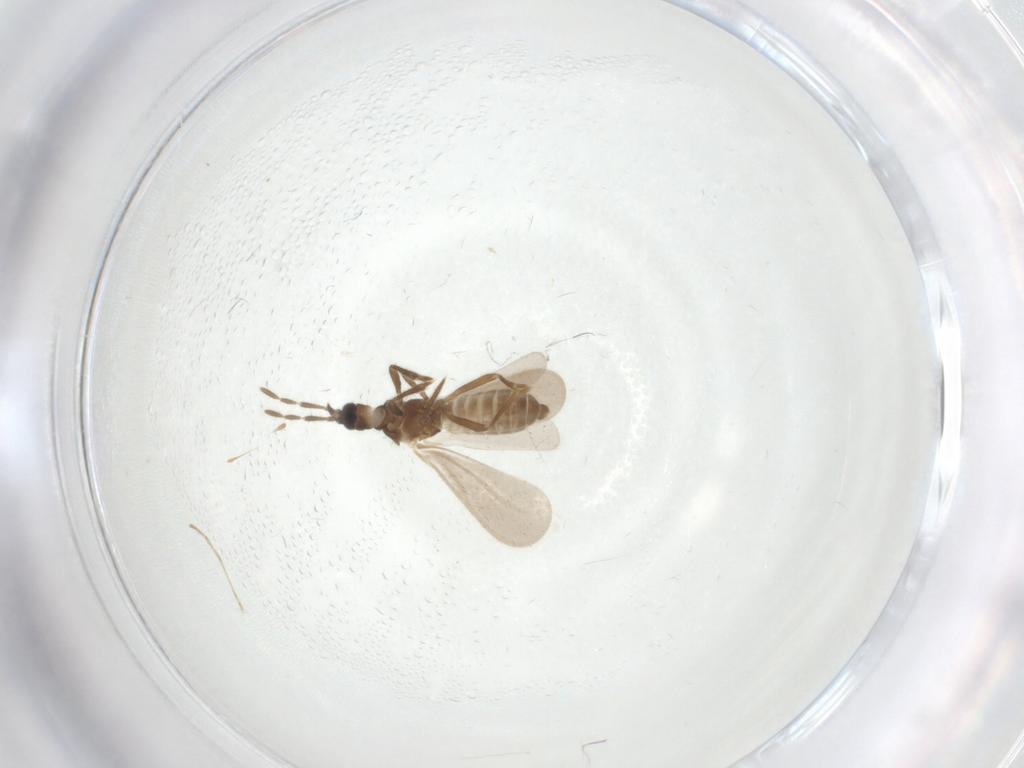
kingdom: Animalia
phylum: Arthropoda
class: Insecta
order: Hemiptera
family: Enicocephalidae
